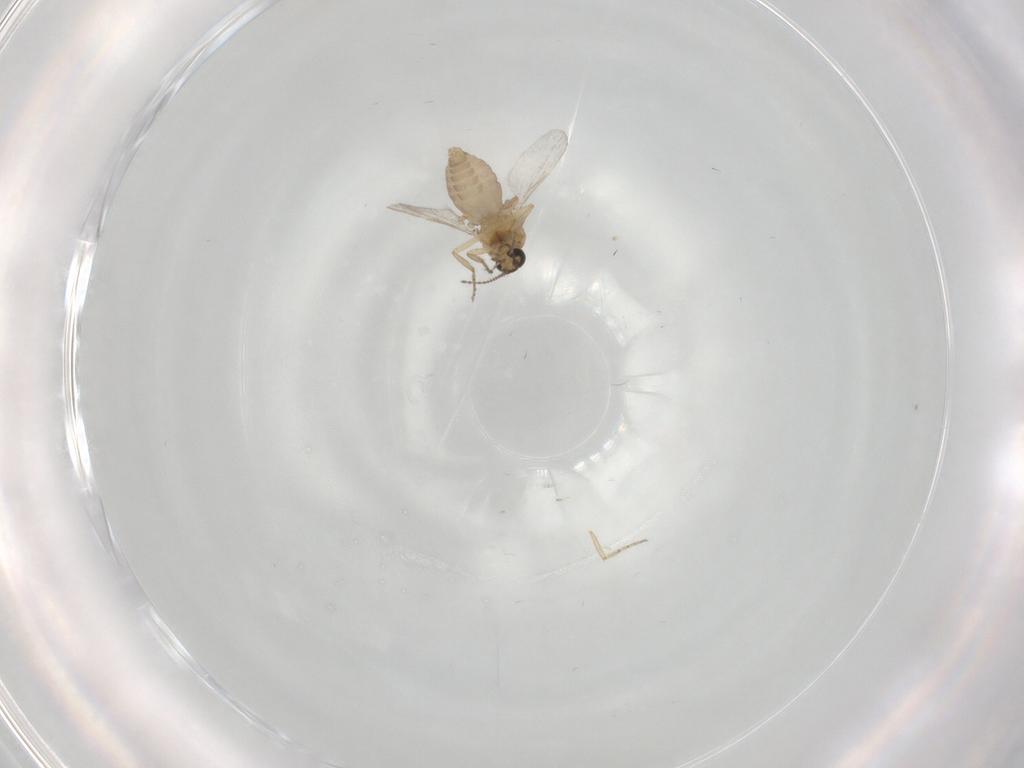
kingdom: Animalia
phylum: Arthropoda
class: Insecta
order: Diptera
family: Ceratopogonidae
